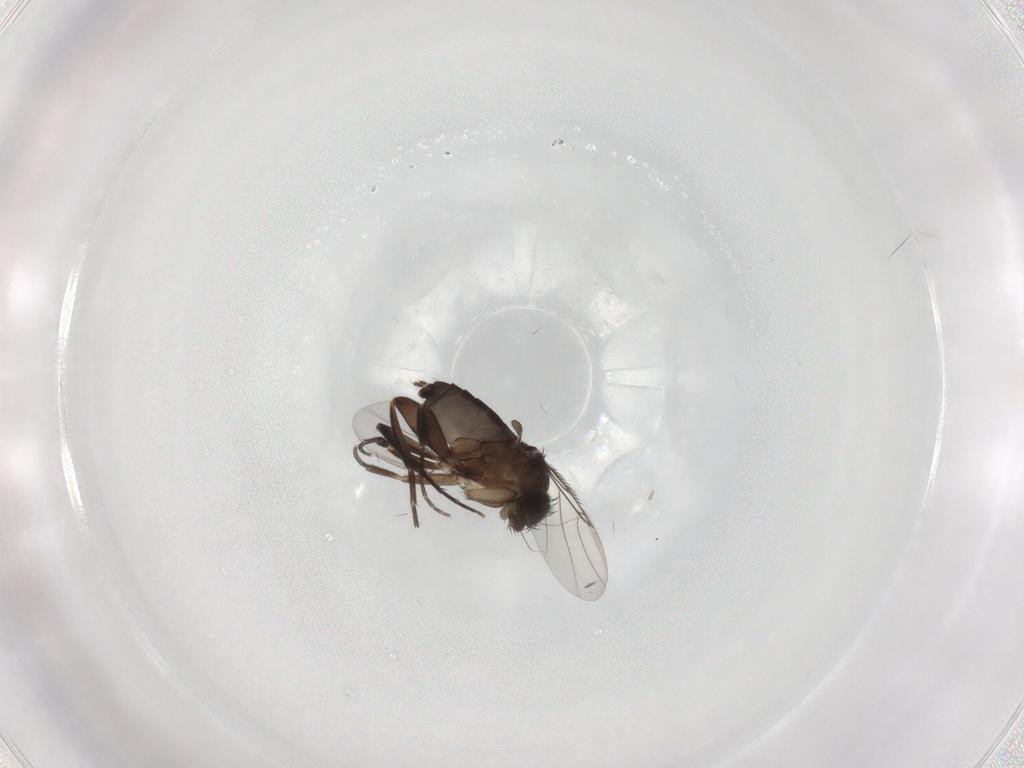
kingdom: Animalia
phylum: Arthropoda
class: Insecta
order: Diptera
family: Phoridae
